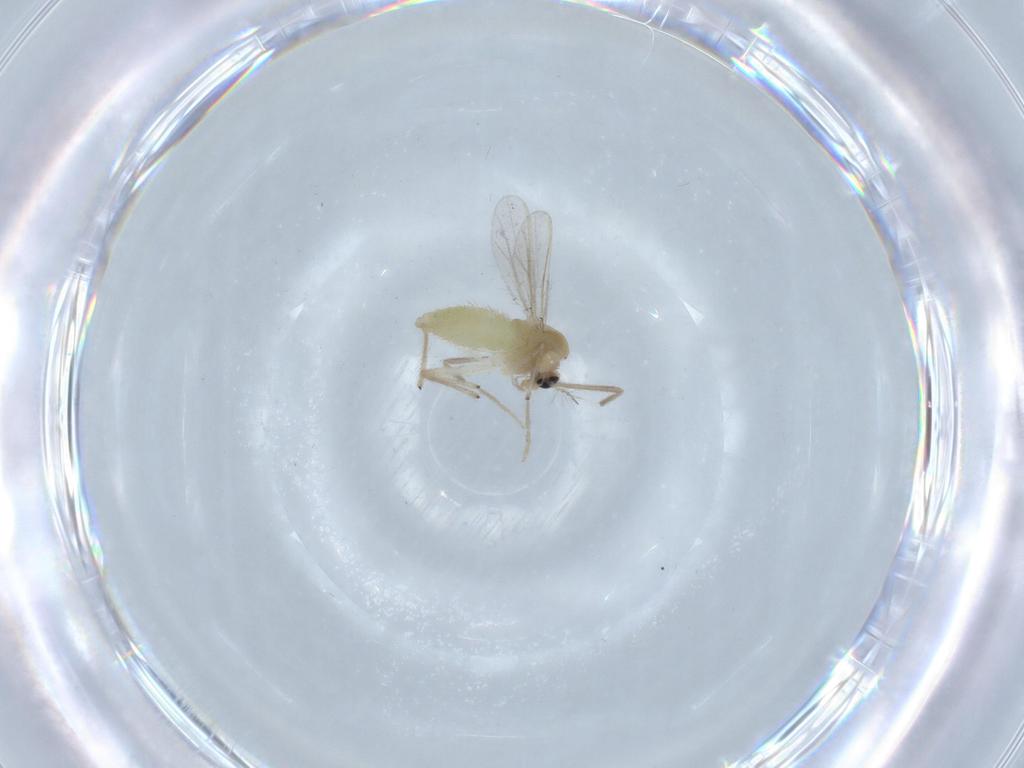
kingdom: Animalia
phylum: Arthropoda
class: Insecta
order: Diptera
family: Chironomidae
